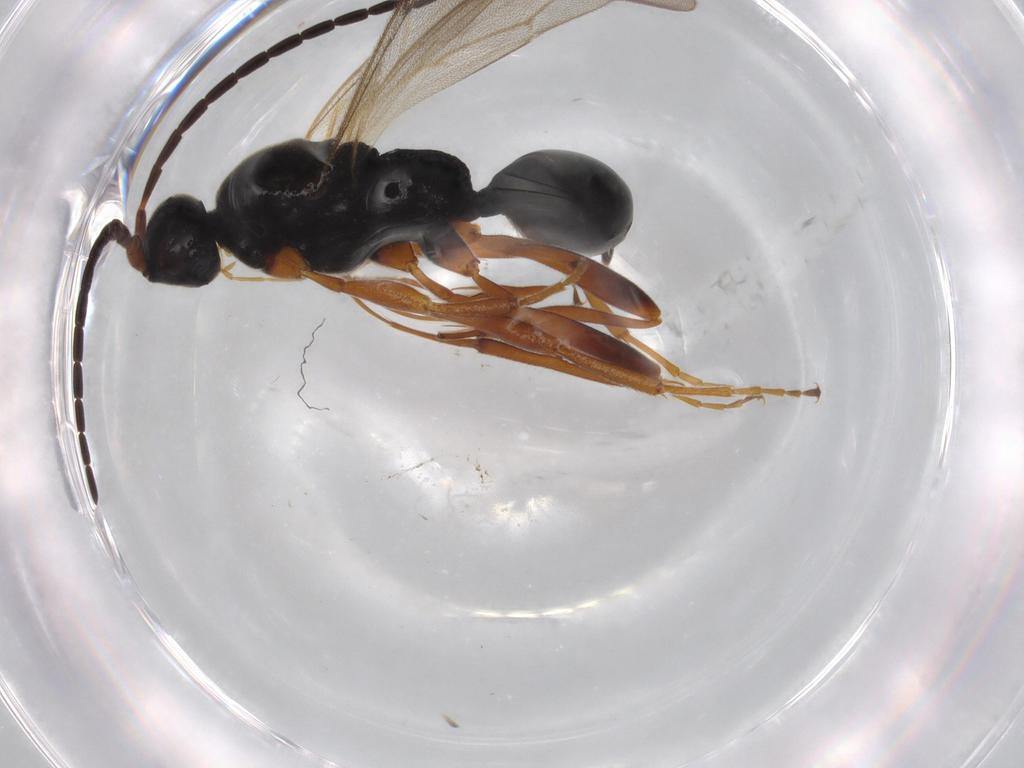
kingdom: Animalia
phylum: Arthropoda
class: Insecta
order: Hymenoptera
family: Proctotrupidae
